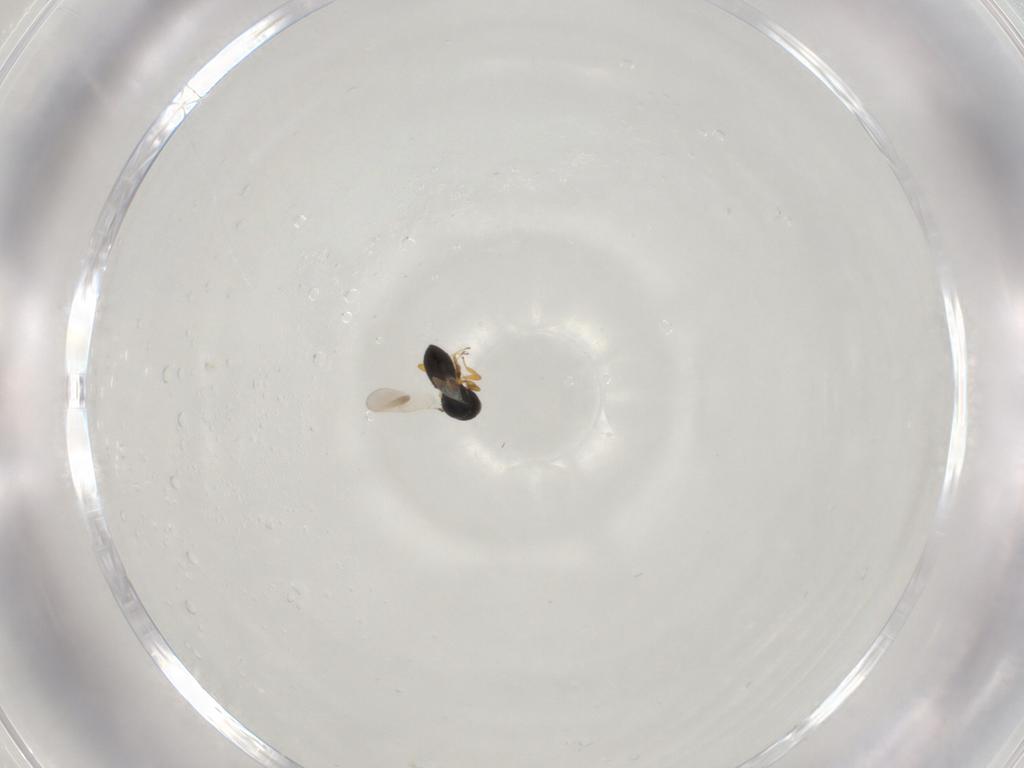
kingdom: Animalia
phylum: Arthropoda
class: Insecta
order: Hymenoptera
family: Platygastridae
